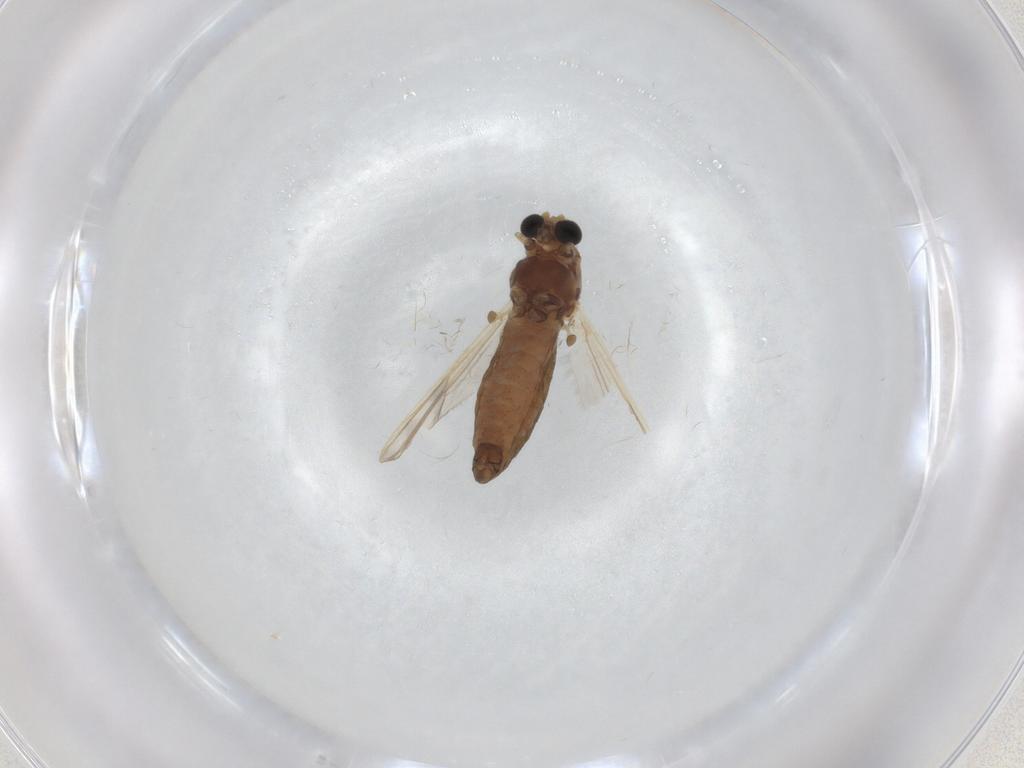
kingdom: Animalia
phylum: Arthropoda
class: Insecta
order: Diptera
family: Chironomidae
